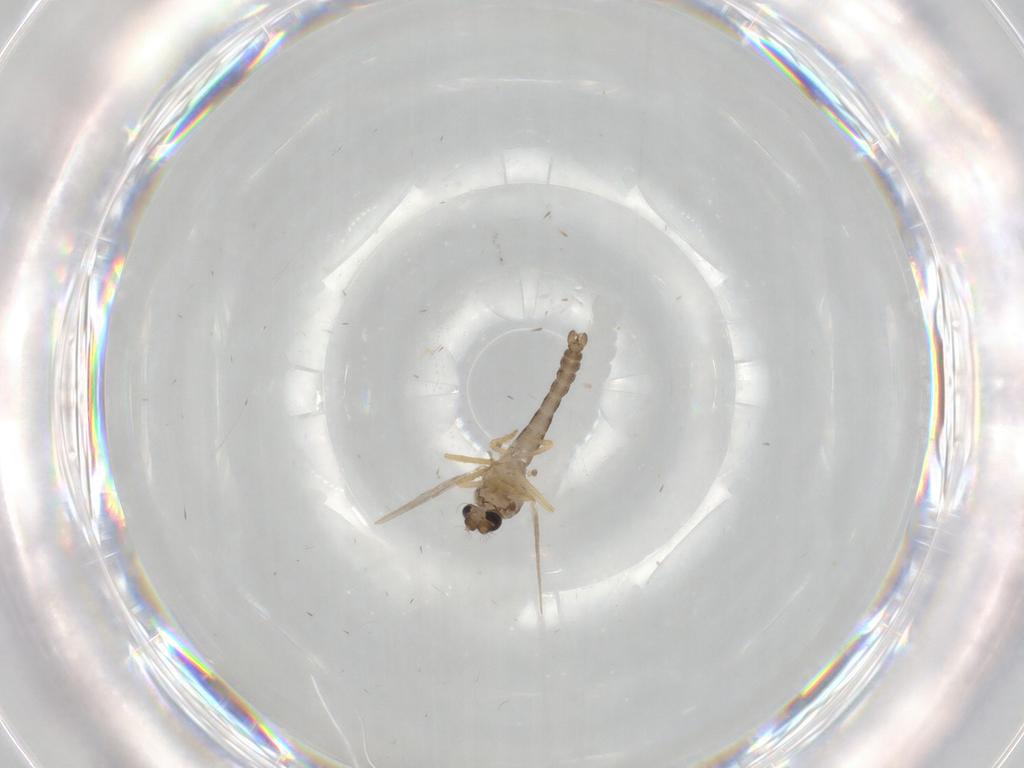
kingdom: Animalia
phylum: Arthropoda
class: Insecta
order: Diptera
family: Ceratopogonidae
